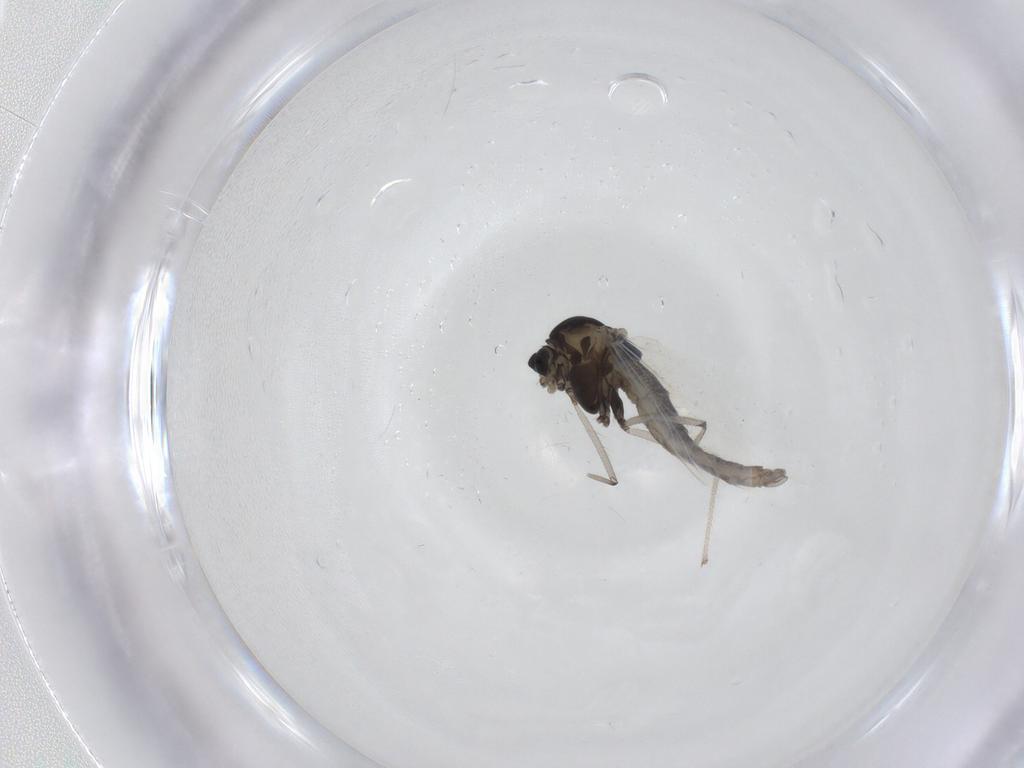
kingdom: Animalia
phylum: Arthropoda
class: Insecta
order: Diptera
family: Chironomidae
